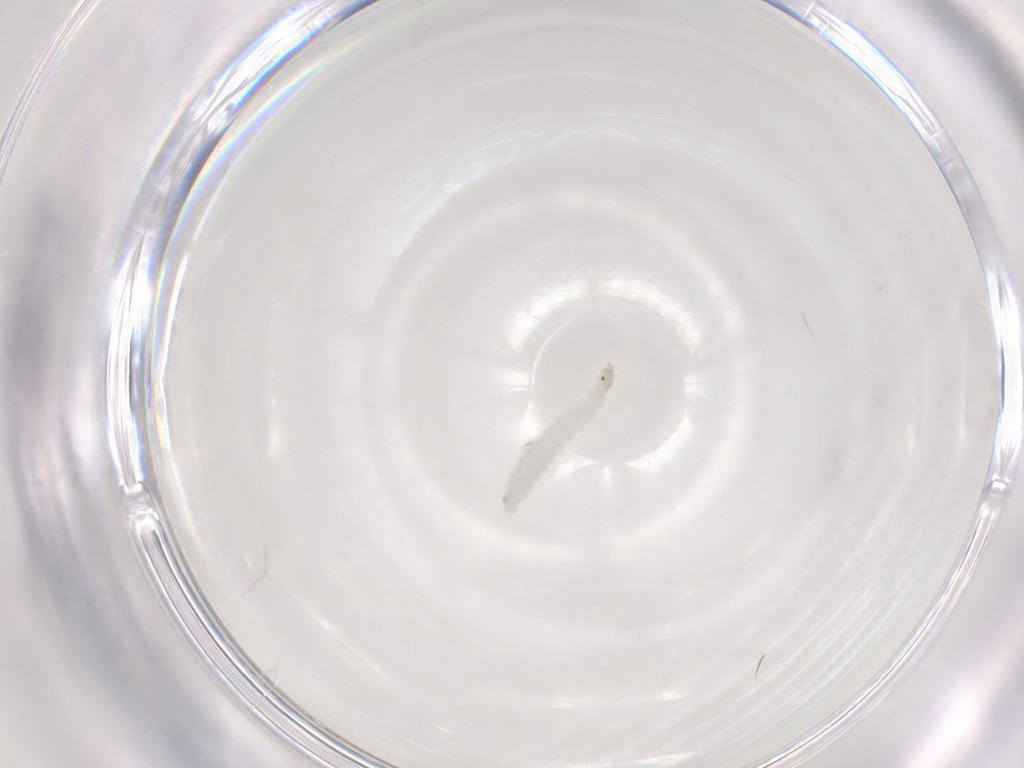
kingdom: Animalia
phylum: Arthropoda
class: Insecta
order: Diptera
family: Stratiomyidae
